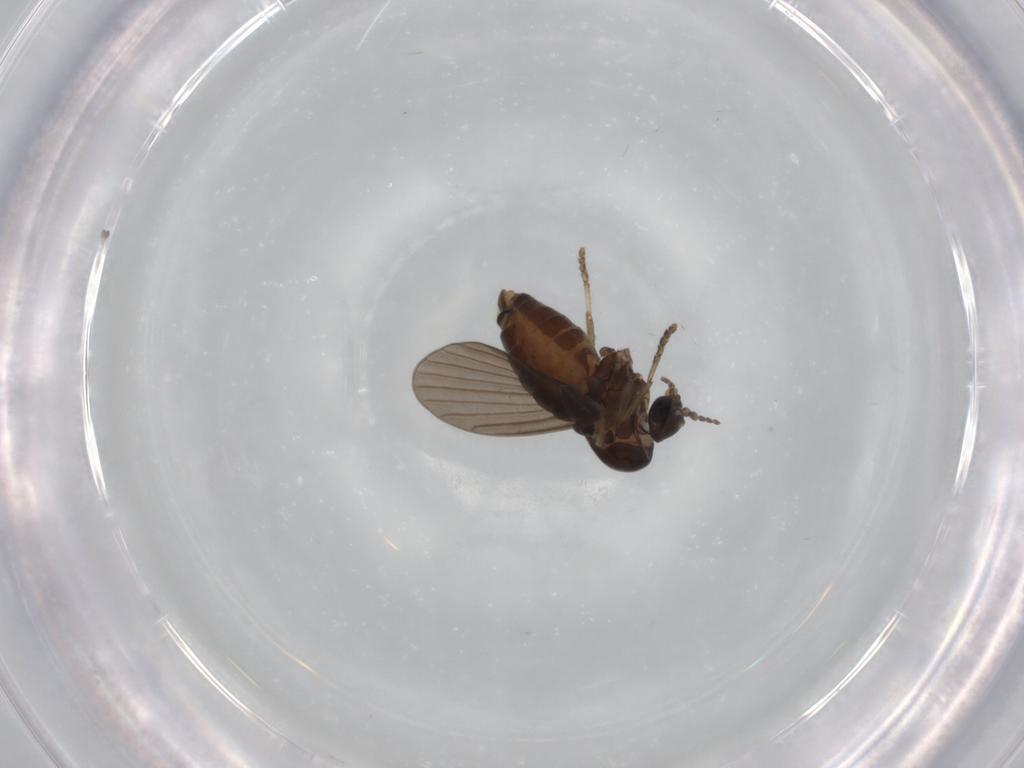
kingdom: Animalia
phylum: Arthropoda
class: Insecta
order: Diptera
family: Psychodidae
